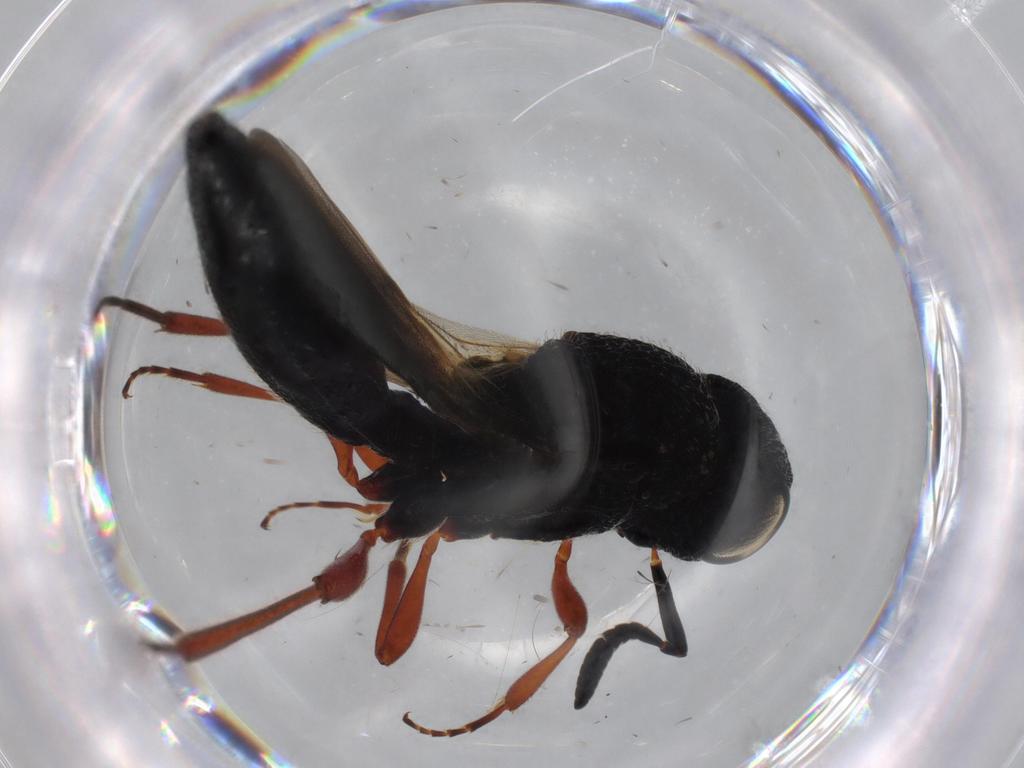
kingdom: Animalia
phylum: Arthropoda
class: Insecta
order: Hymenoptera
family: Scelionidae
